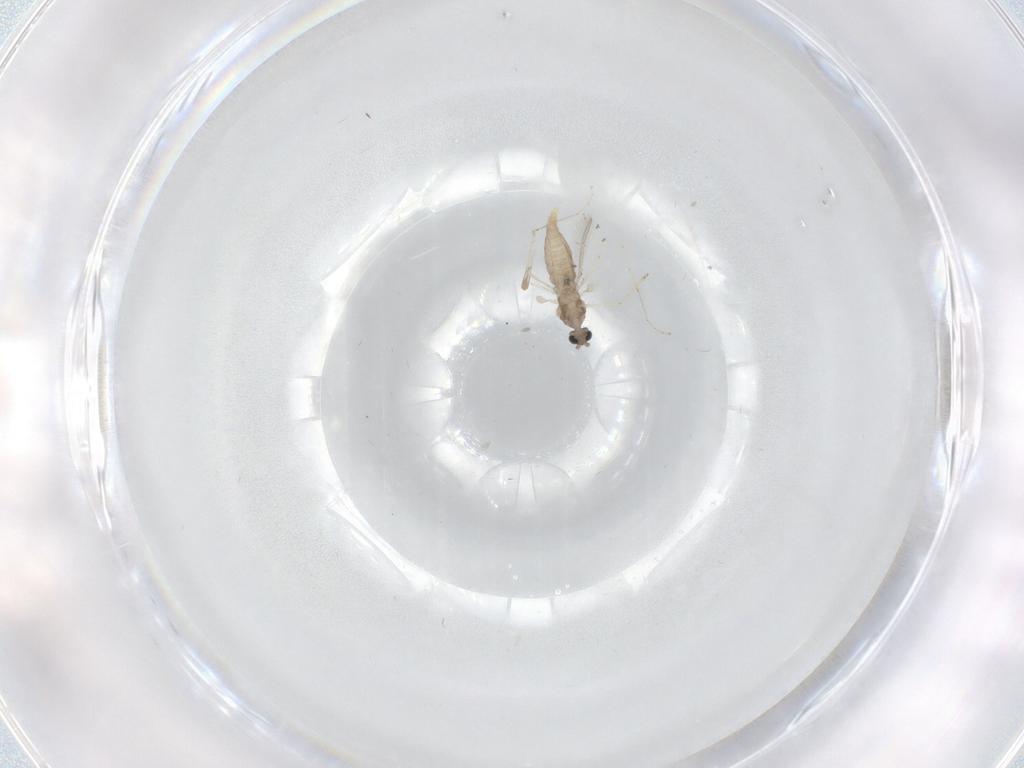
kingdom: Animalia
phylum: Arthropoda
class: Insecta
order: Diptera
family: Cecidomyiidae
